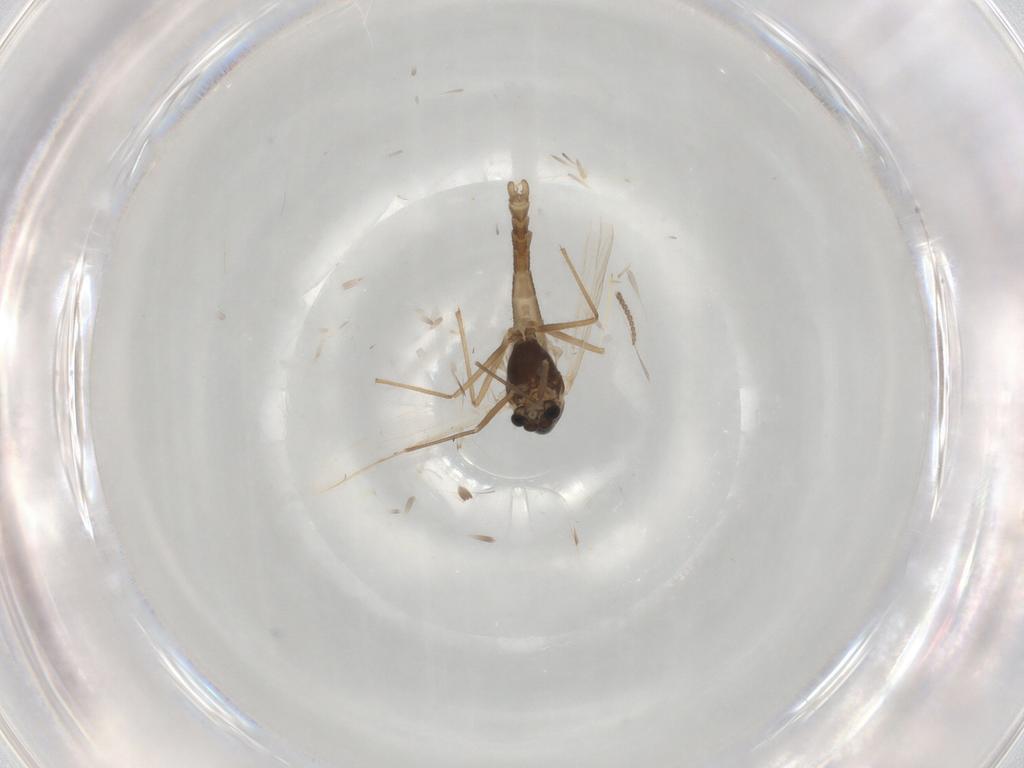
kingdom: Animalia
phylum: Arthropoda
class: Insecta
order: Diptera
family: Chironomidae
